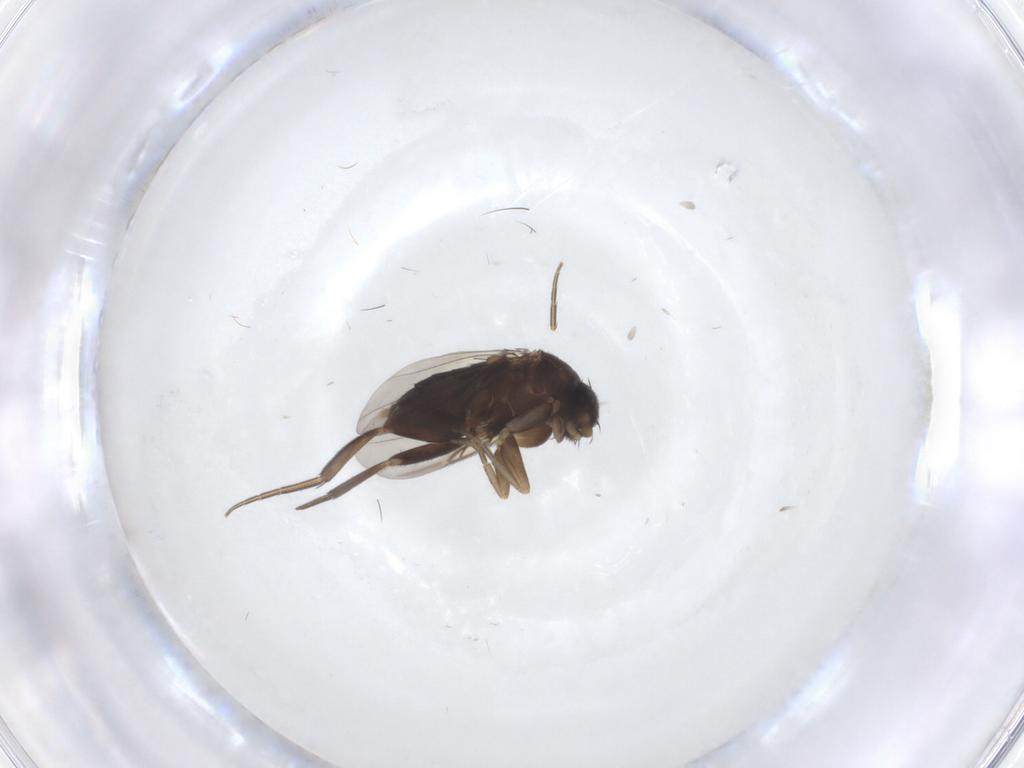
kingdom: Animalia
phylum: Arthropoda
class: Insecta
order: Diptera
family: Phoridae
